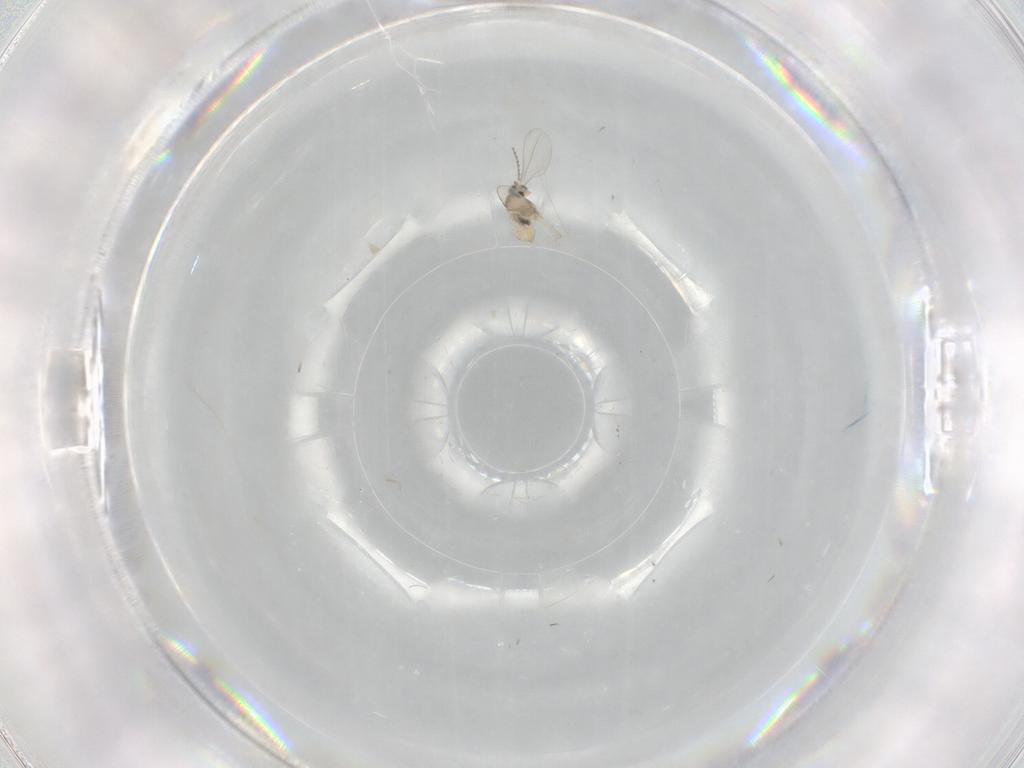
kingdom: Animalia
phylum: Arthropoda
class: Insecta
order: Diptera
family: Cecidomyiidae
